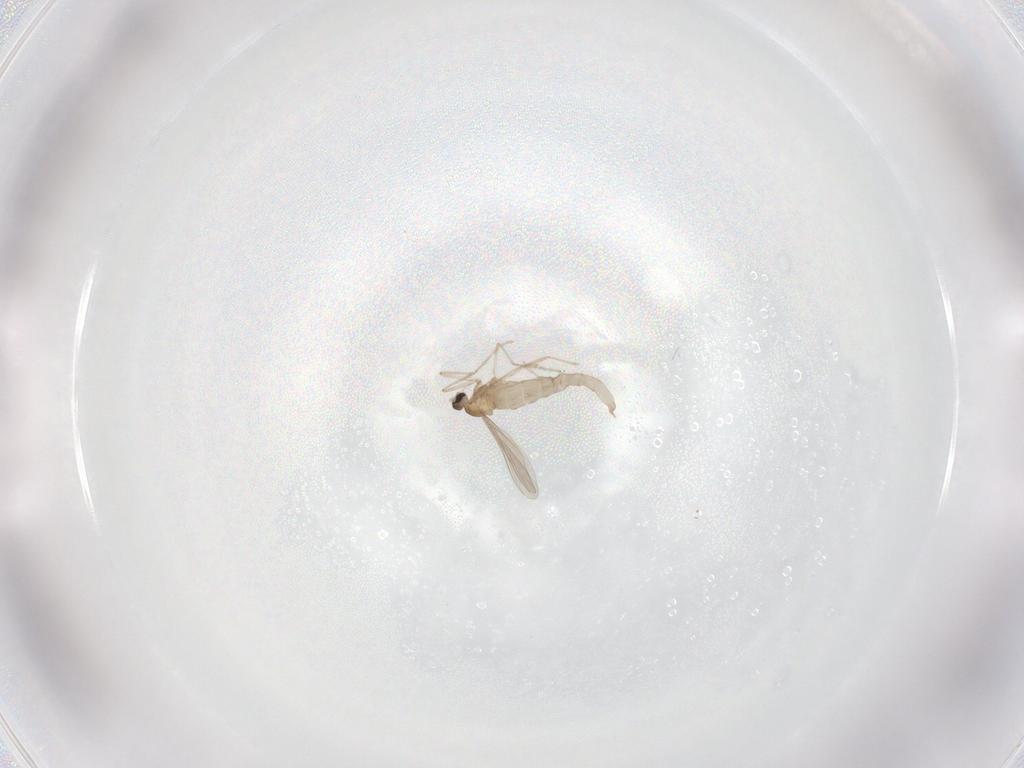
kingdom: Animalia
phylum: Arthropoda
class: Insecta
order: Diptera
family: Cecidomyiidae
